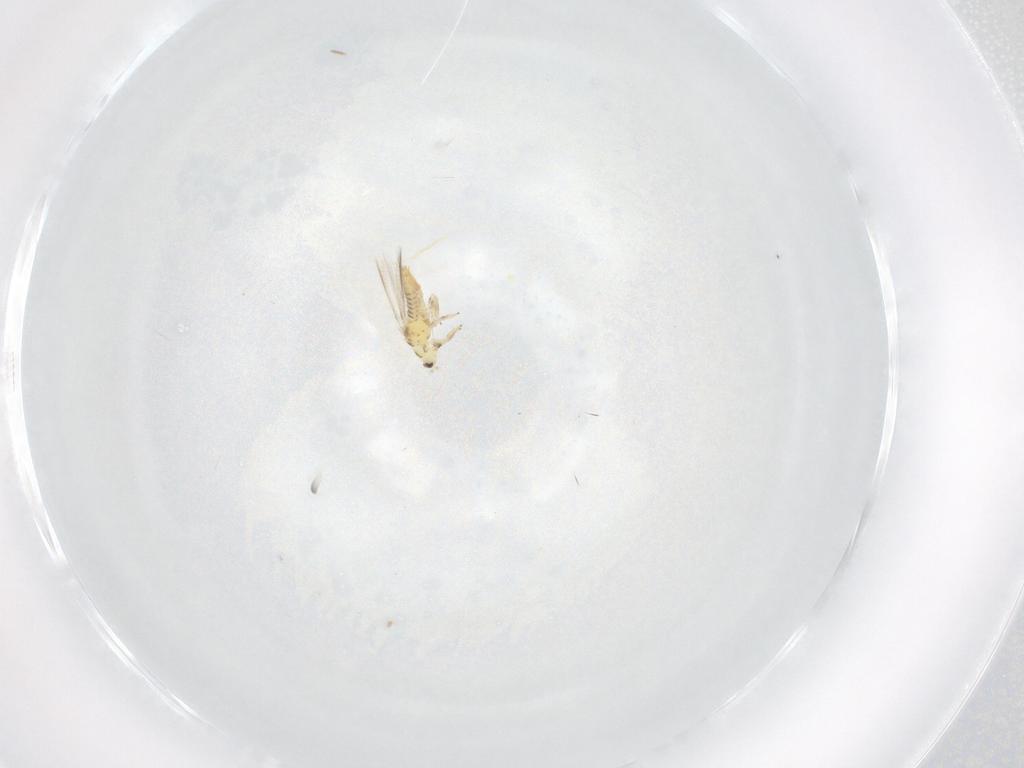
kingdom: Animalia
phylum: Arthropoda
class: Insecta
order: Thysanoptera
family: Thripidae
